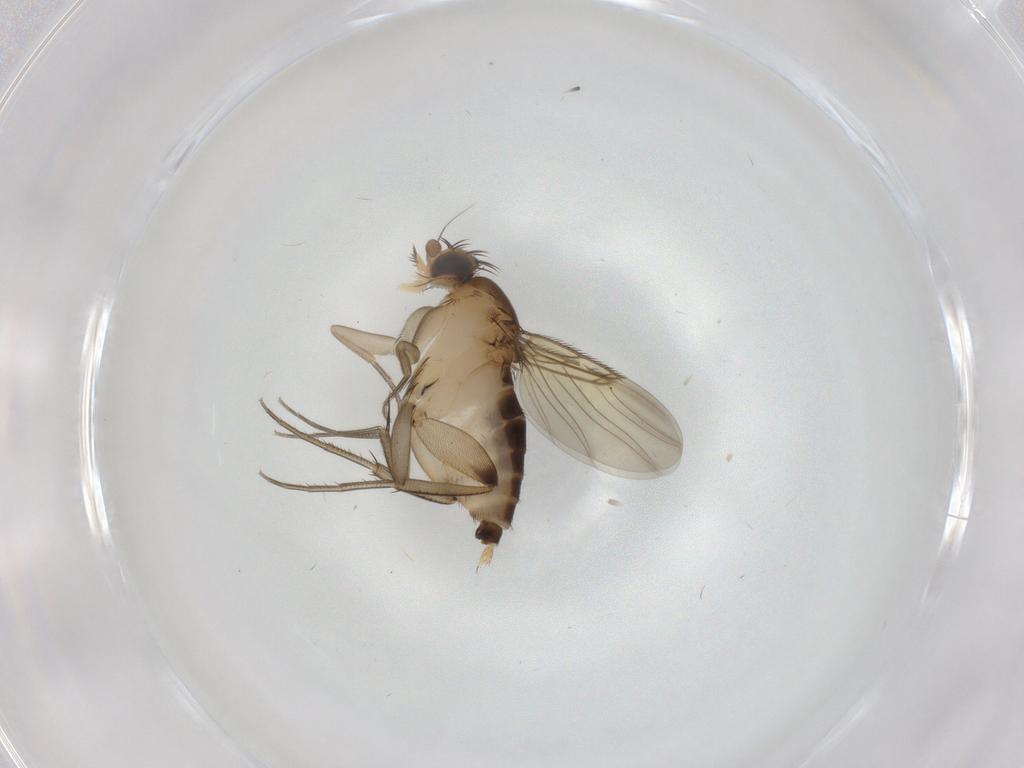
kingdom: Animalia
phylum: Arthropoda
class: Insecta
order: Diptera
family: Phoridae
